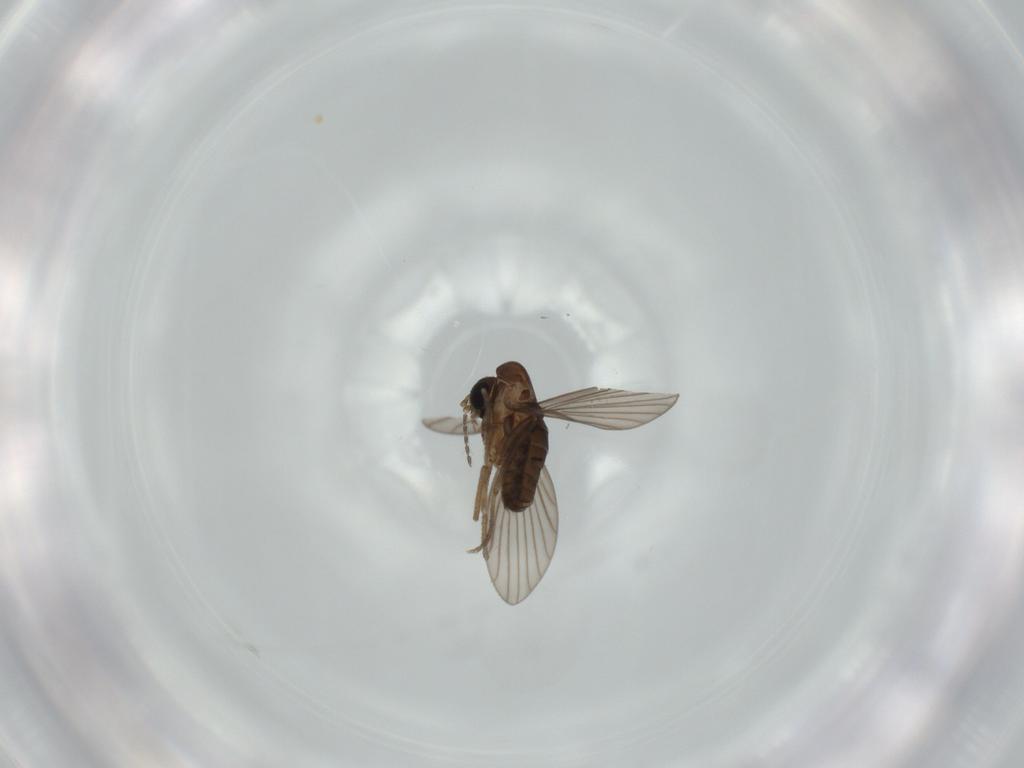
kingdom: Animalia
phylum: Arthropoda
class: Insecta
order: Diptera
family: Psychodidae
